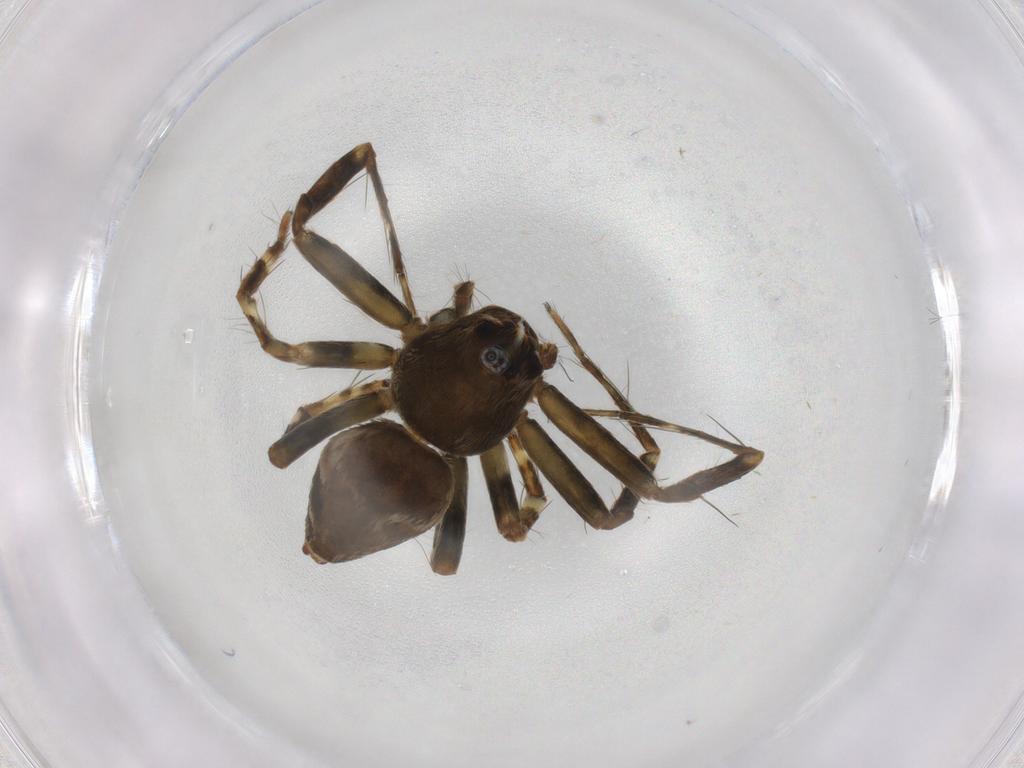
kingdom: Animalia
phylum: Arthropoda
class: Arachnida
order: Araneae
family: Oxyopidae
